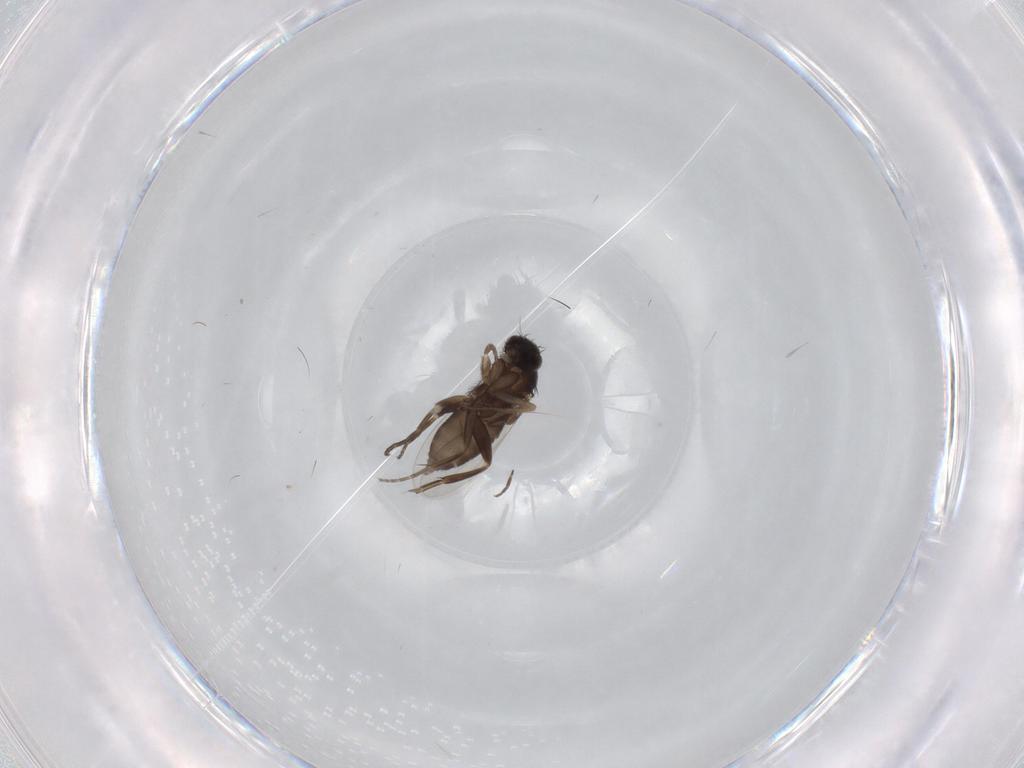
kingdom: Animalia
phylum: Arthropoda
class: Insecta
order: Diptera
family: Phoridae
